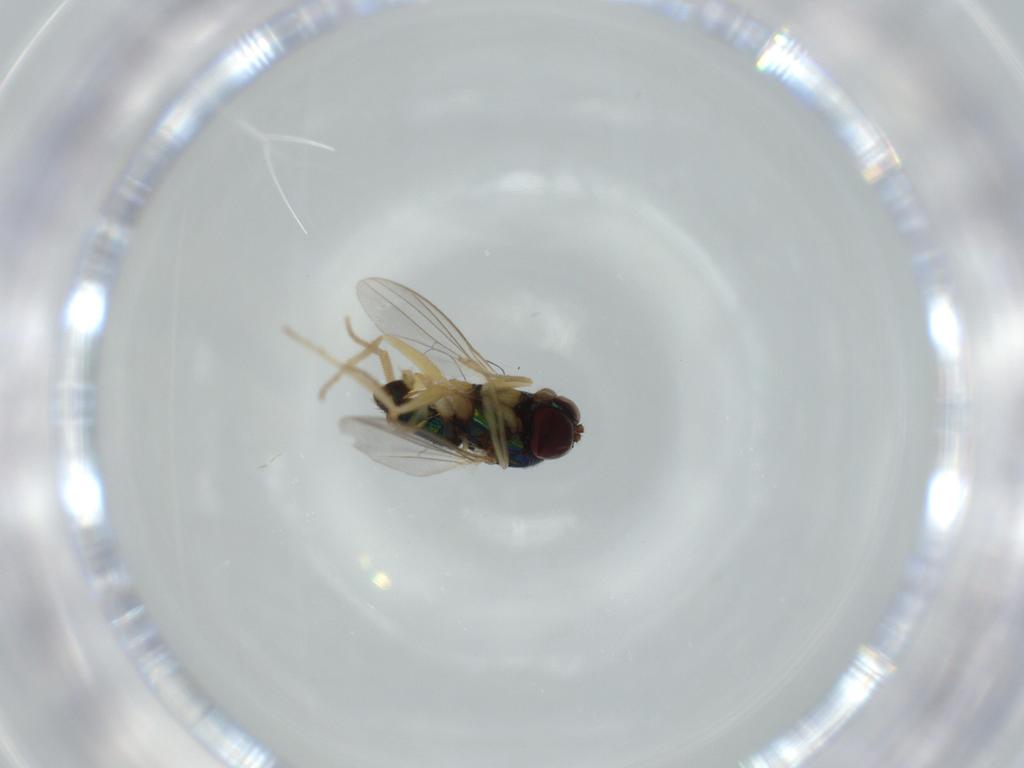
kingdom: Animalia
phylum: Arthropoda
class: Insecta
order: Diptera
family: Dolichopodidae
